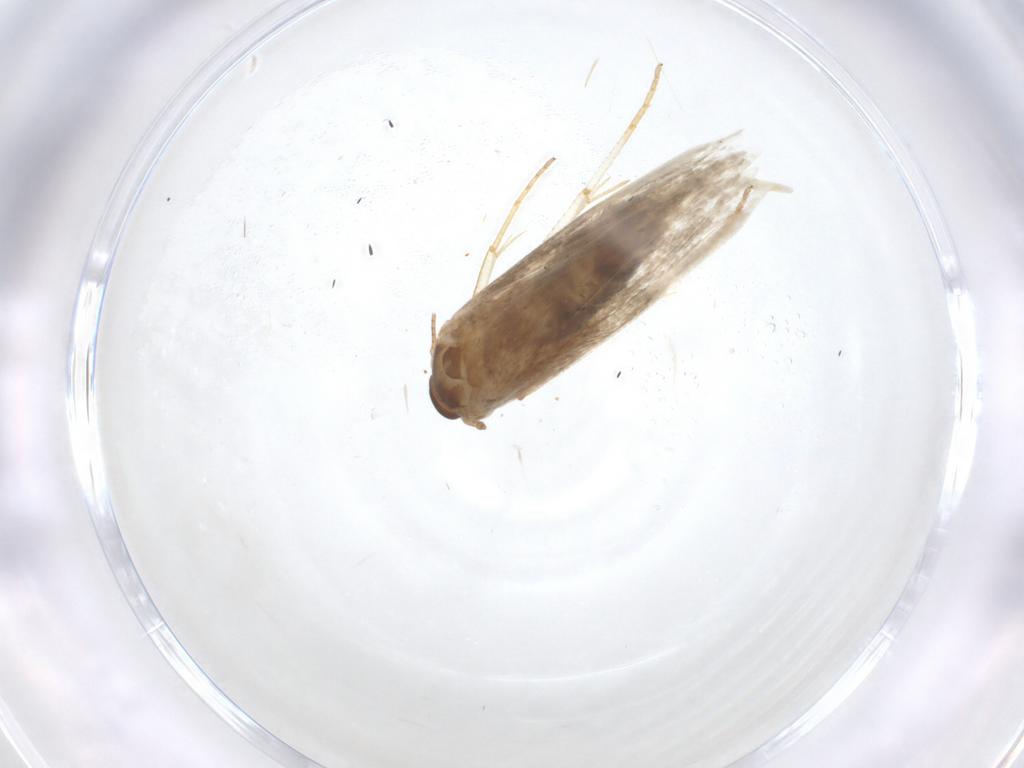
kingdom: Animalia
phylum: Arthropoda
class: Insecta
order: Lepidoptera
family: Blastobasidae
